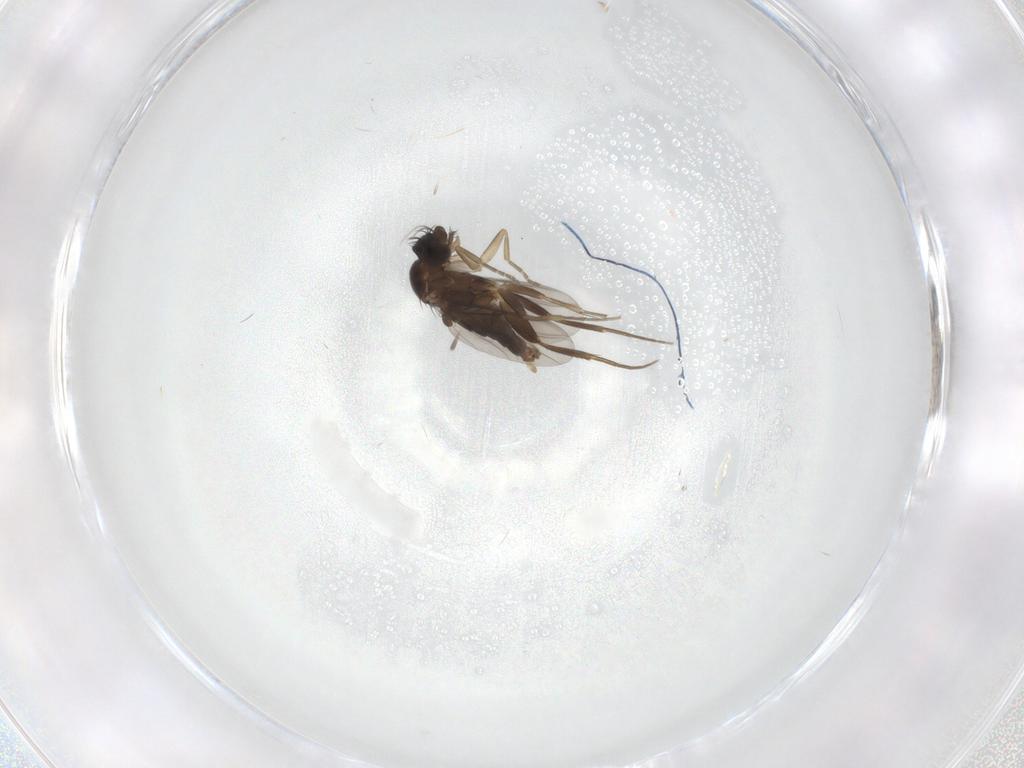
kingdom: Animalia
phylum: Arthropoda
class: Insecta
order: Diptera
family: Phoridae
